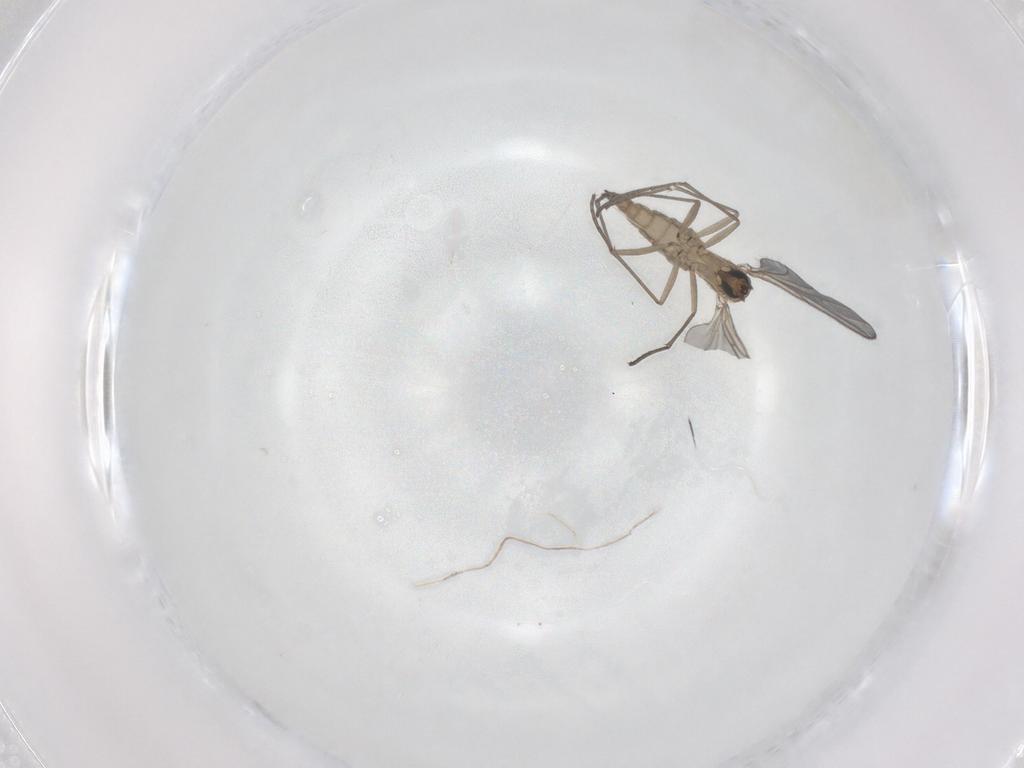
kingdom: Animalia
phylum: Arthropoda
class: Insecta
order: Diptera
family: Sciaridae
